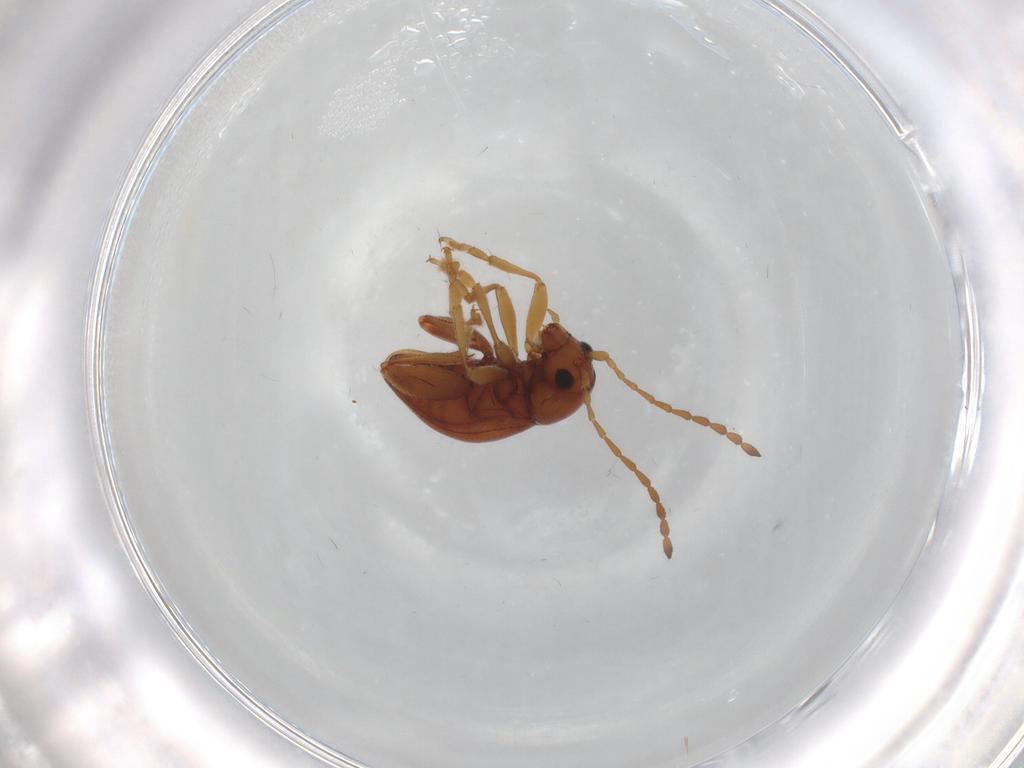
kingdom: Animalia
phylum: Arthropoda
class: Insecta
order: Coleoptera
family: Chrysomelidae
